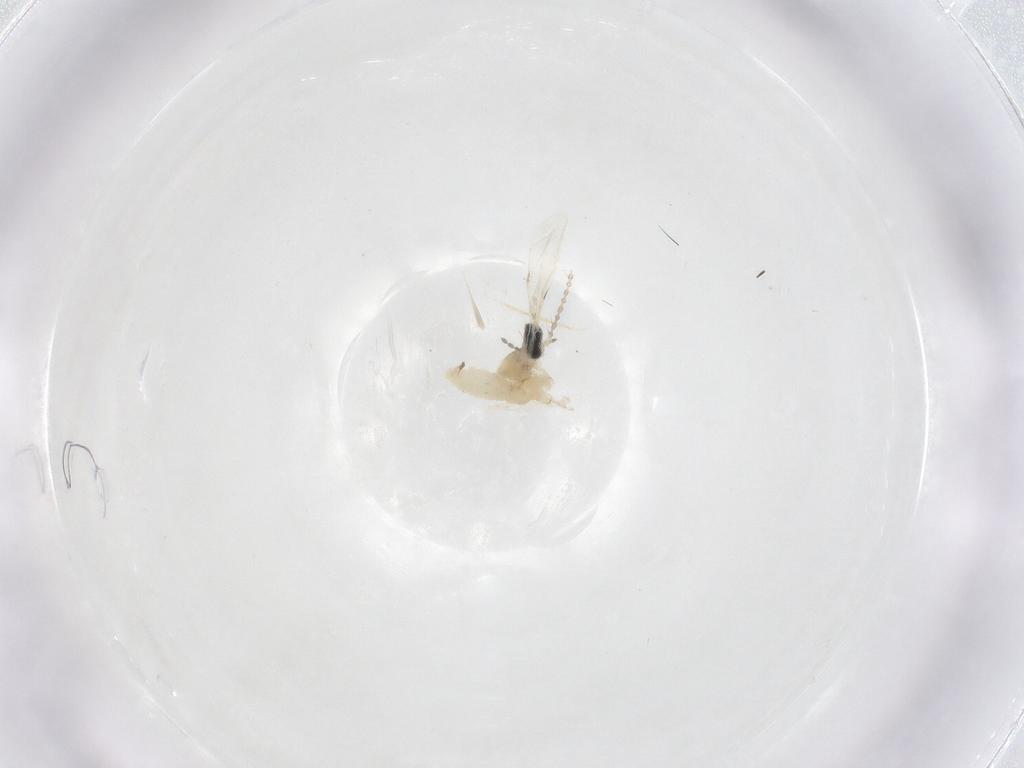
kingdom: Animalia
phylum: Arthropoda
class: Insecta
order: Diptera
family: Cecidomyiidae
